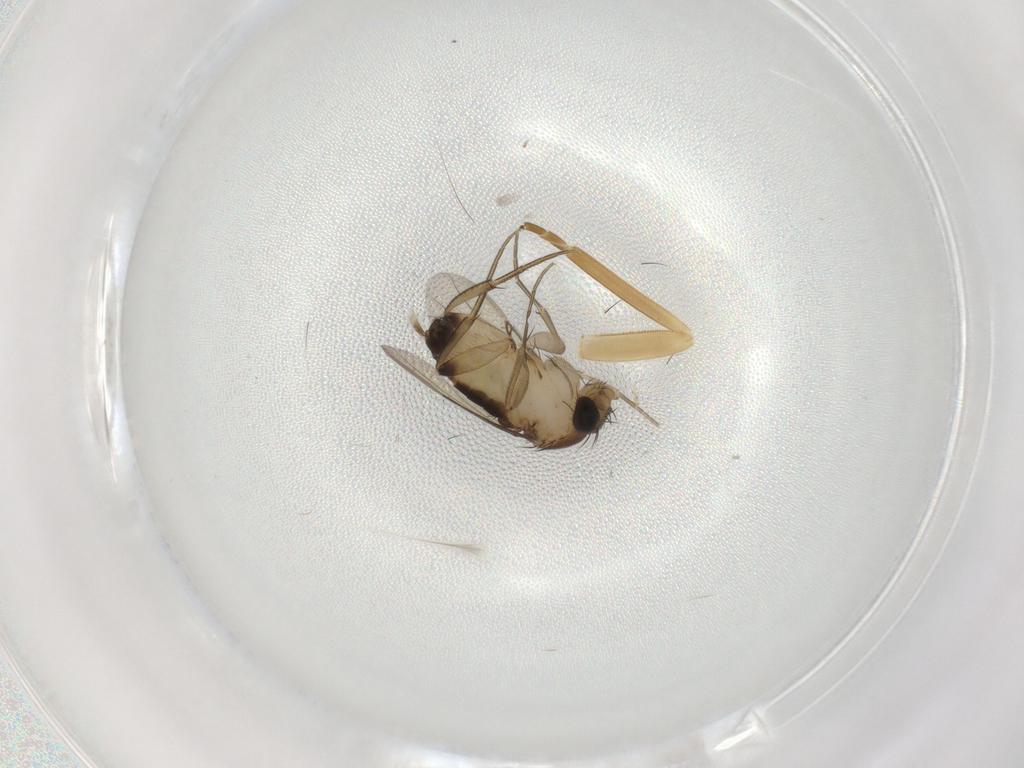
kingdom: Animalia
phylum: Arthropoda
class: Insecta
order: Diptera
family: Phoridae
